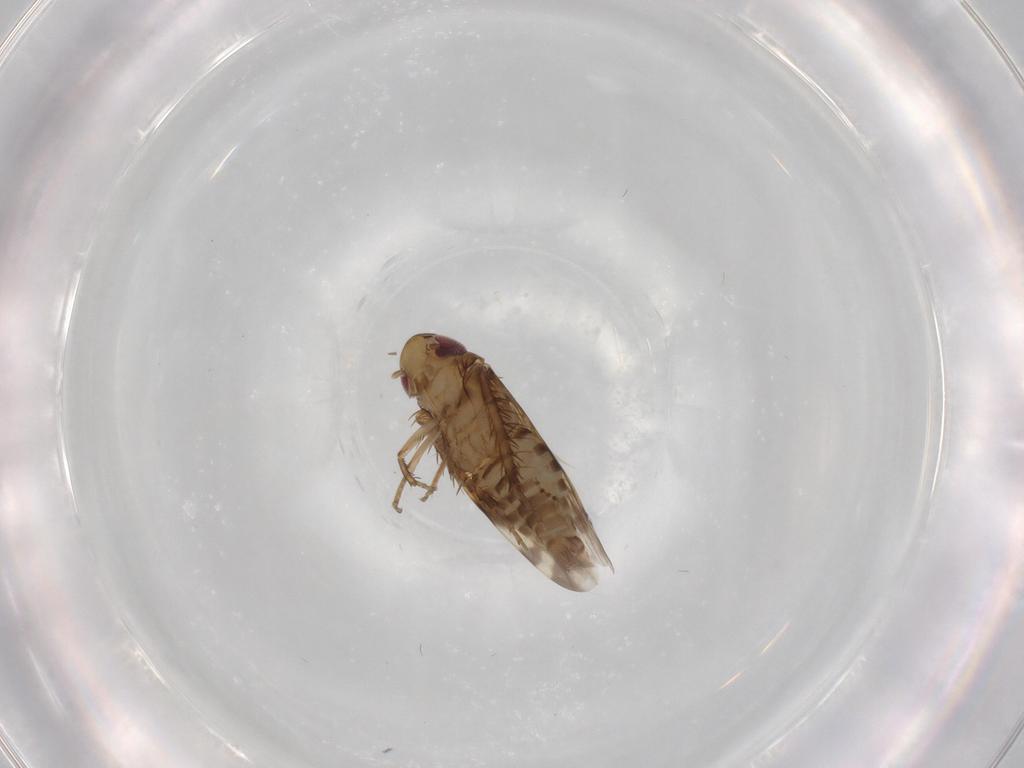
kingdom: Animalia
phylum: Arthropoda
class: Insecta
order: Hemiptera
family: Cicadellidae
